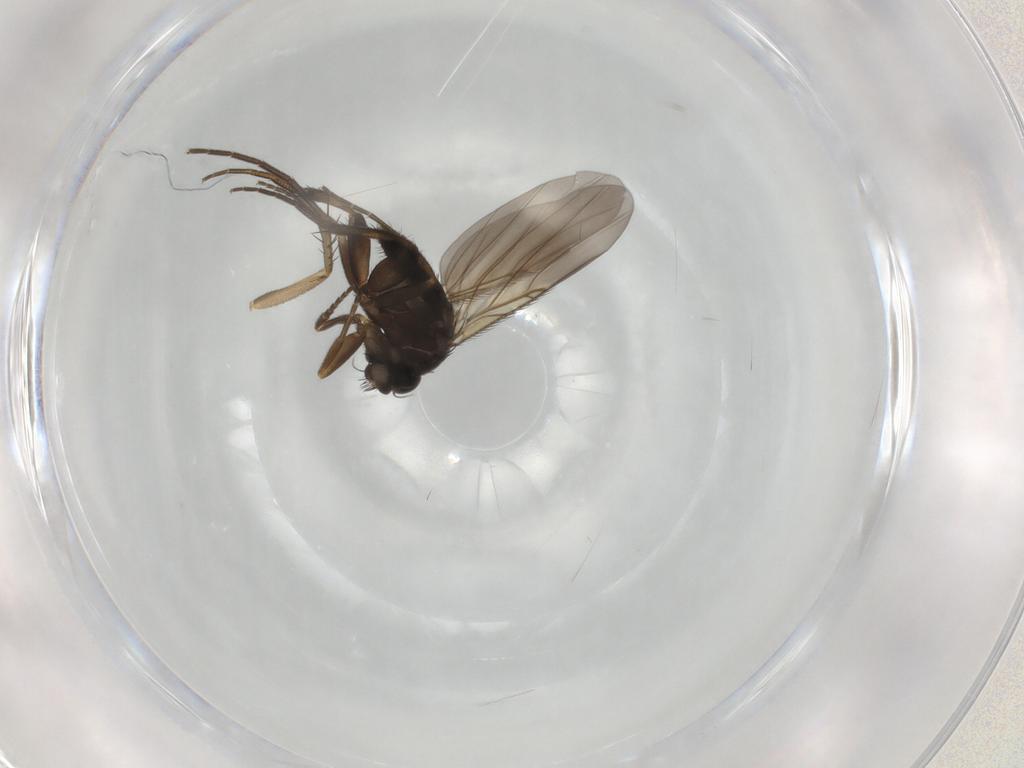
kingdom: Animalia
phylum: Arthropoda
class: Insecta
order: Diptera
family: Phoridae
